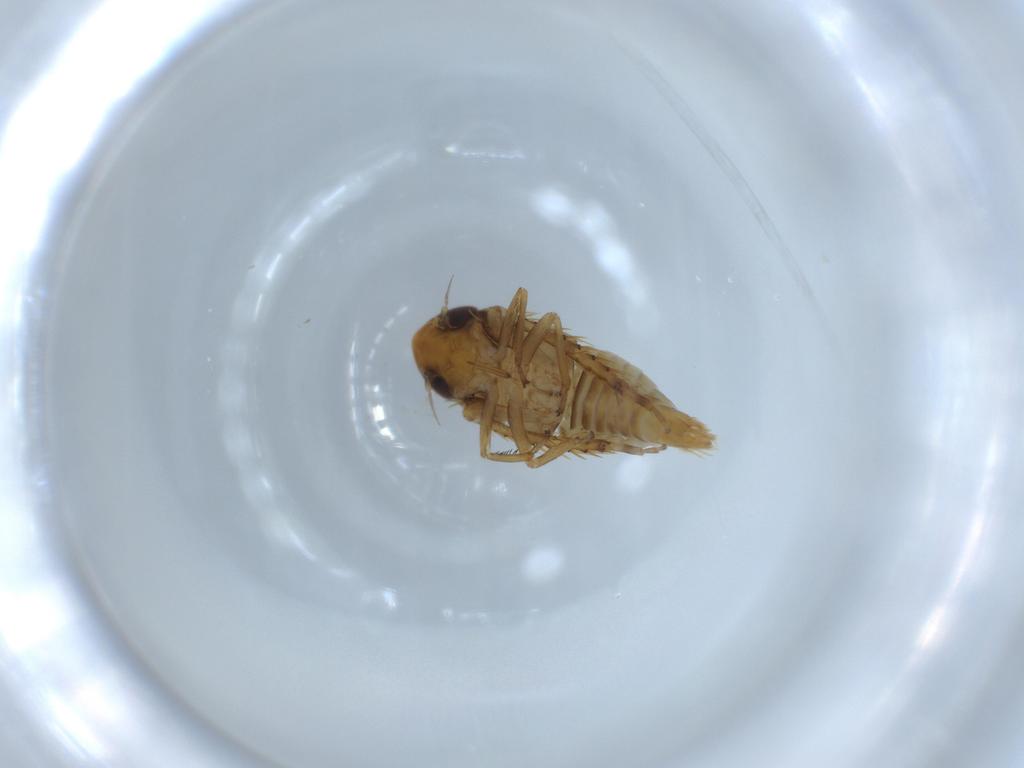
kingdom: Animalia
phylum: Arthropoda
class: Insecta
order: Hemiptera
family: Cicadellidae
